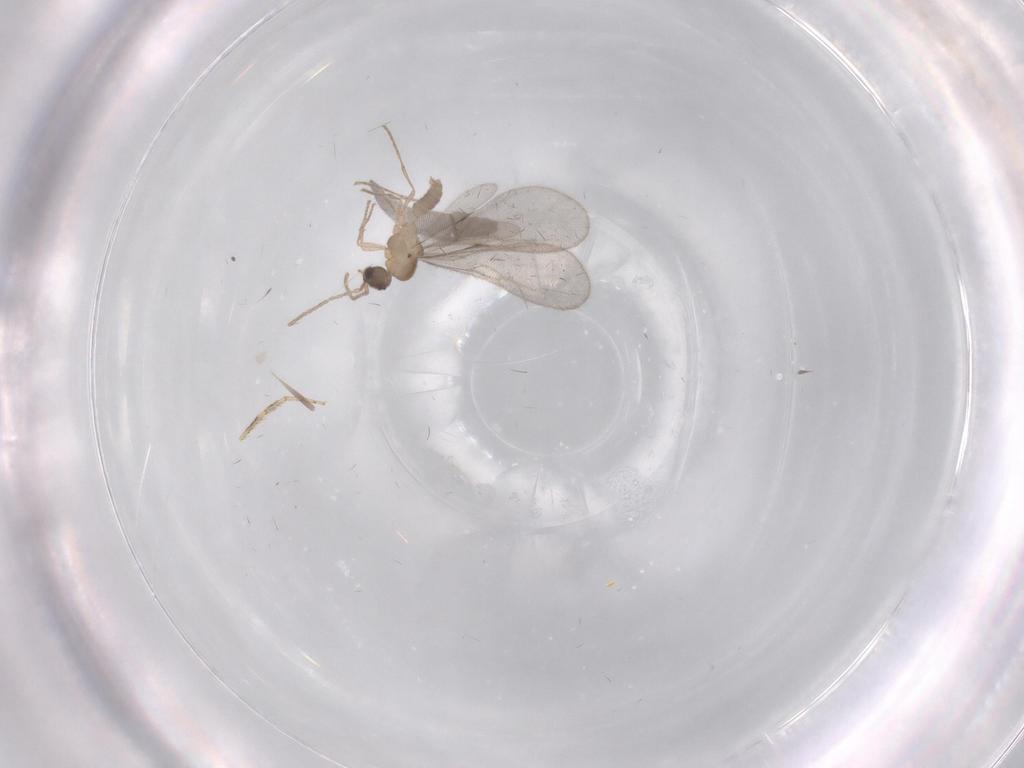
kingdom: Animalia
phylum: Arthropoda
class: Insecta
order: Hymenoptera
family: Formicidae
